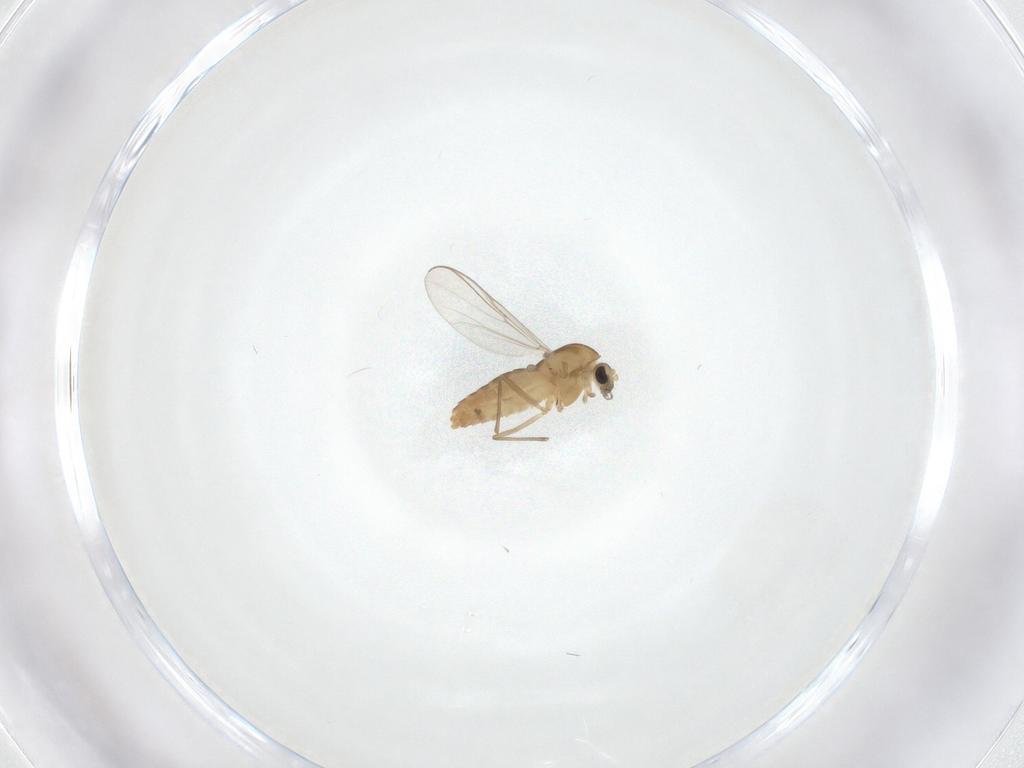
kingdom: Animalia
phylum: Arthropoda
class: Insecta
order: Diptera
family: Chironomidae
